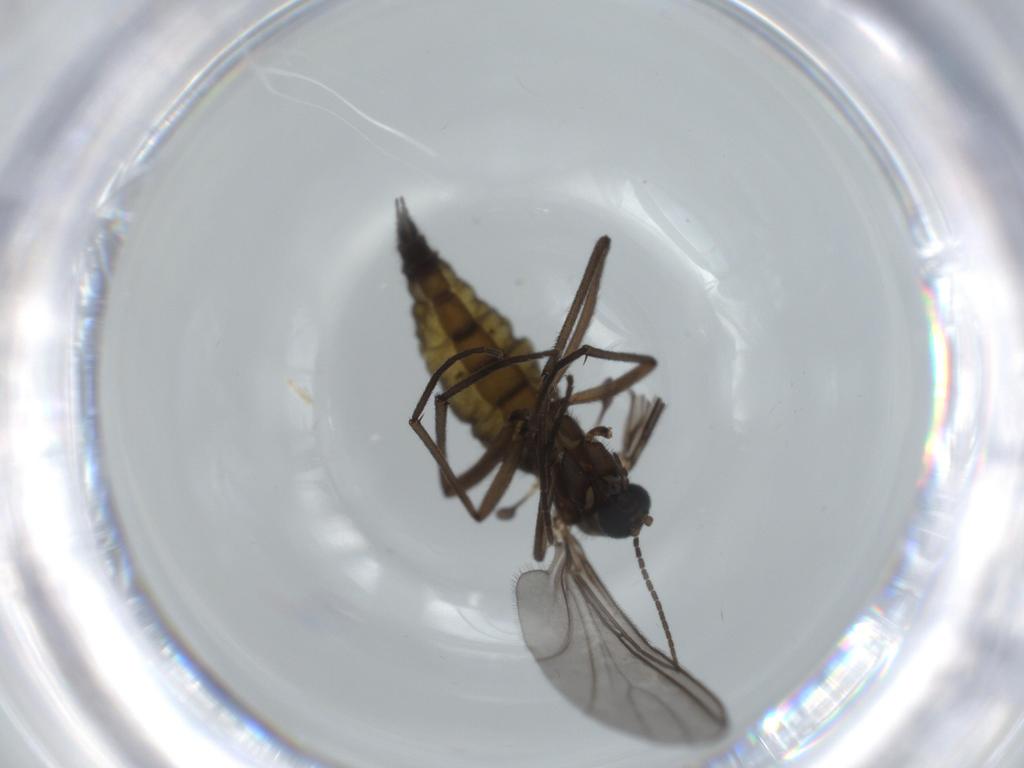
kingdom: Animalia
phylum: Arthropoda
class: Insecta
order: Diptera
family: Sciaridae
